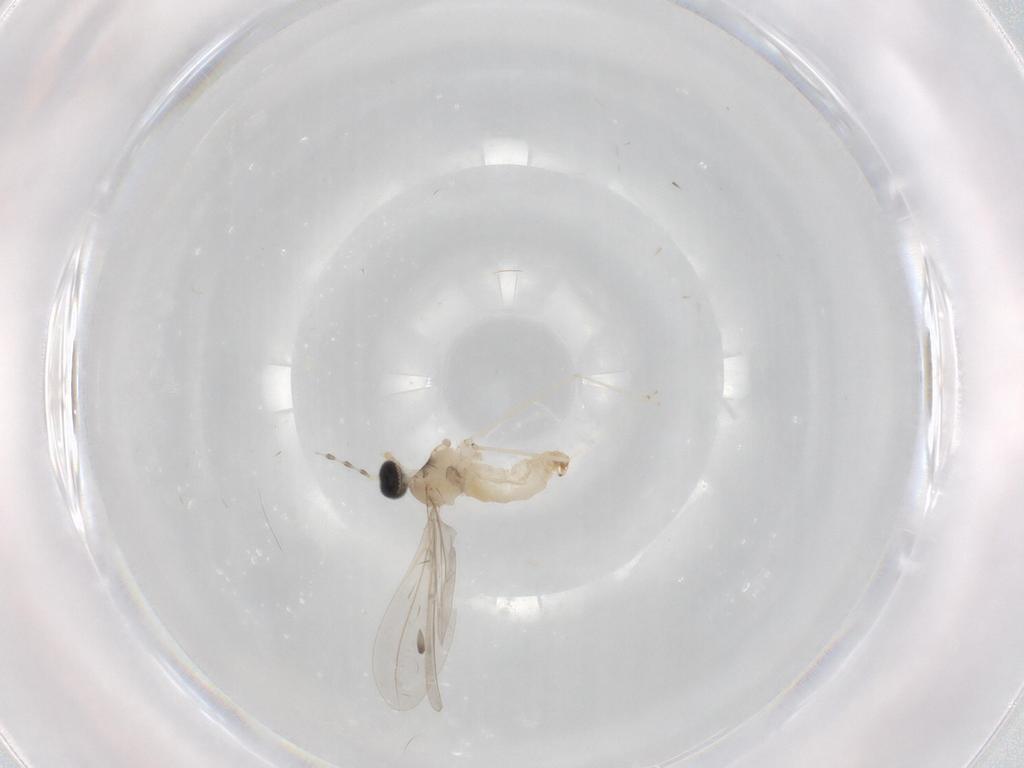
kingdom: Animalia
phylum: Arthropoda
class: Insecta
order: Diptera
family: Cecidomyiidae
